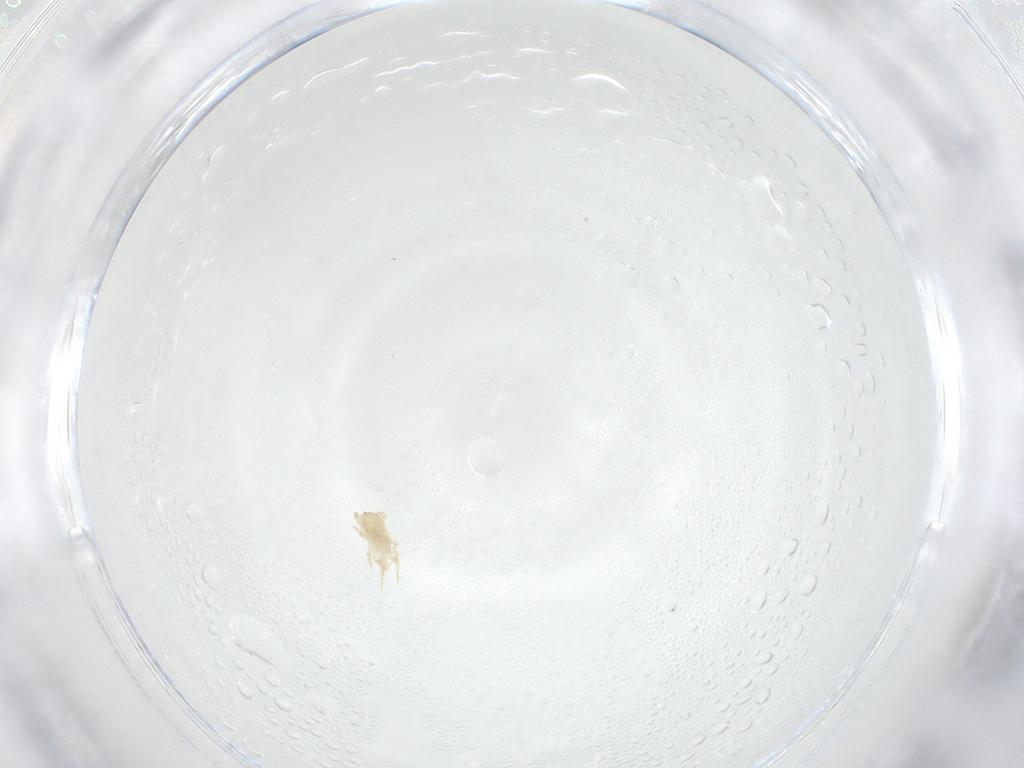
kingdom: Animalia
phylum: Arthropoda
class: Arachnida
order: Mesostigmata
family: Blattisociidae
